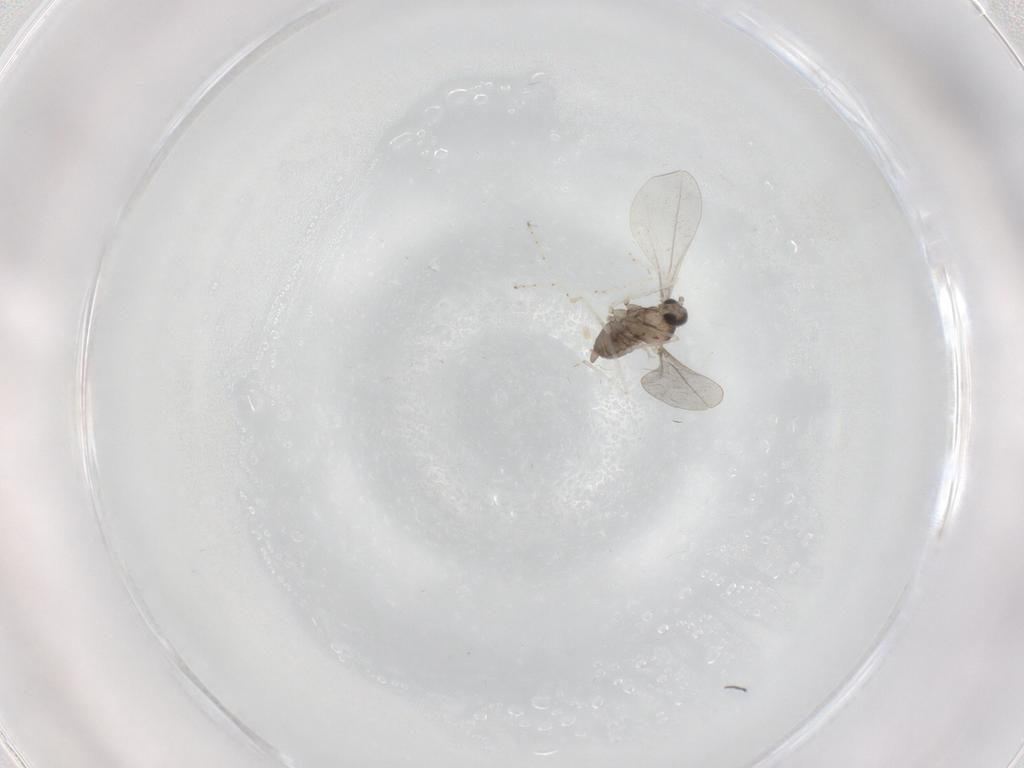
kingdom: Animalia
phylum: Arthropoda
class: Insecta
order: Diptera
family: Cecidomyiidae
